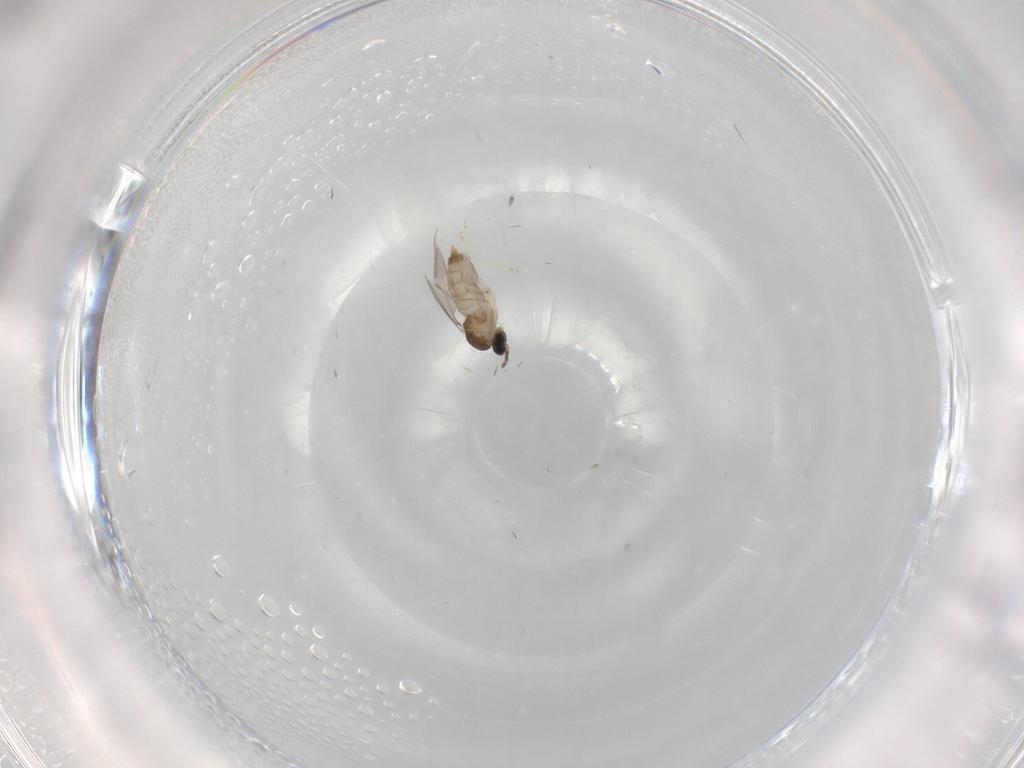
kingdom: Animalia
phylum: Arthropoda
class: Insecta
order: Diptera
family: Cecidomyiidae
